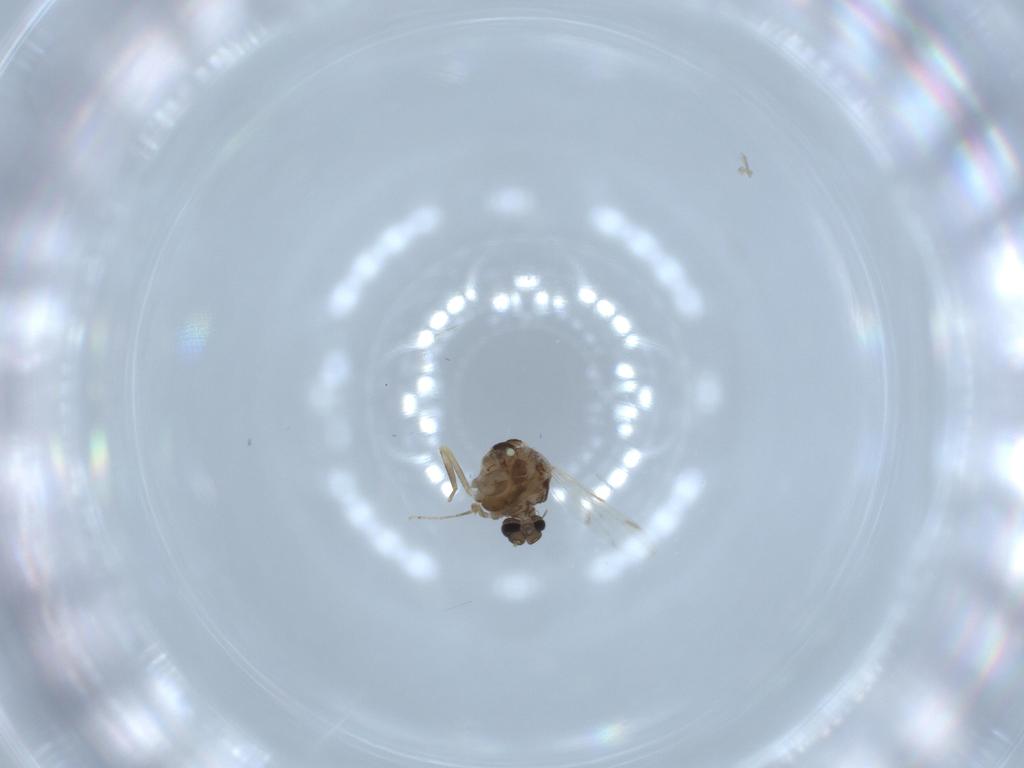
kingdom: Animalia
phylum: Arthropoda
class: Insecta
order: Diptera
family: Ceratopogonidae
